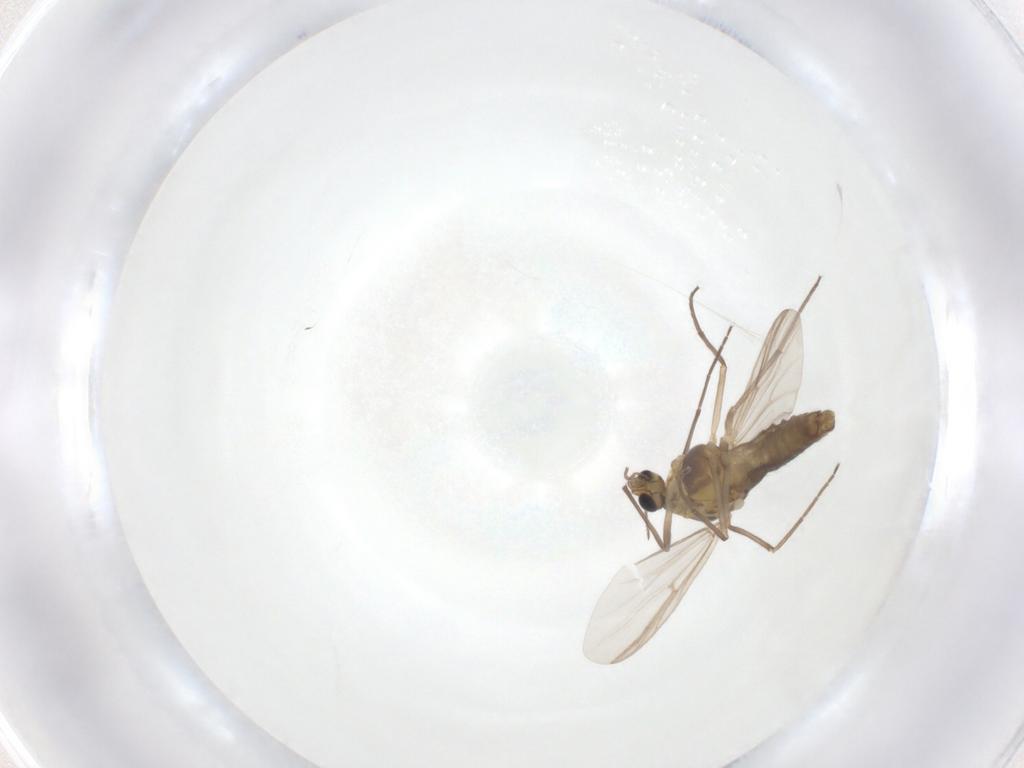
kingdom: Animalia
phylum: Arthropoda
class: Insecta
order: Diptera
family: Chironomidae
